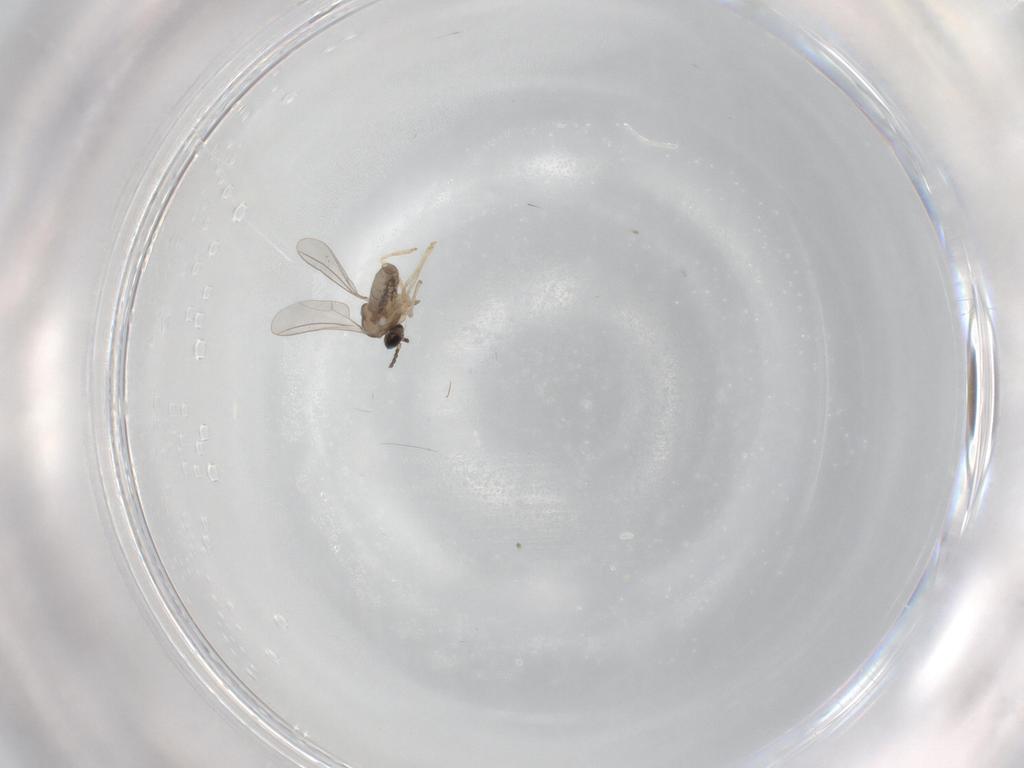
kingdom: Animalia
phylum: Arthropoda
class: Insecta
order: Diptera
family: Cecidomyiidae
